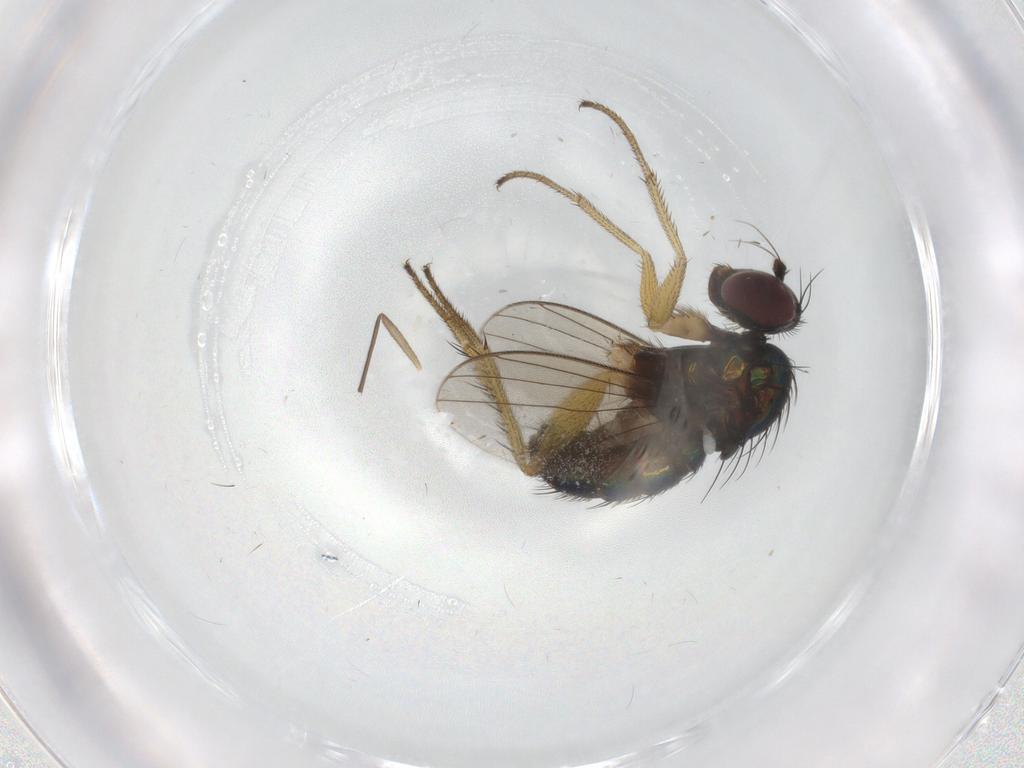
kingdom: Animalia
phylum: Arthropoda
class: Insecta
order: Diptera
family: Dolichopodidae
